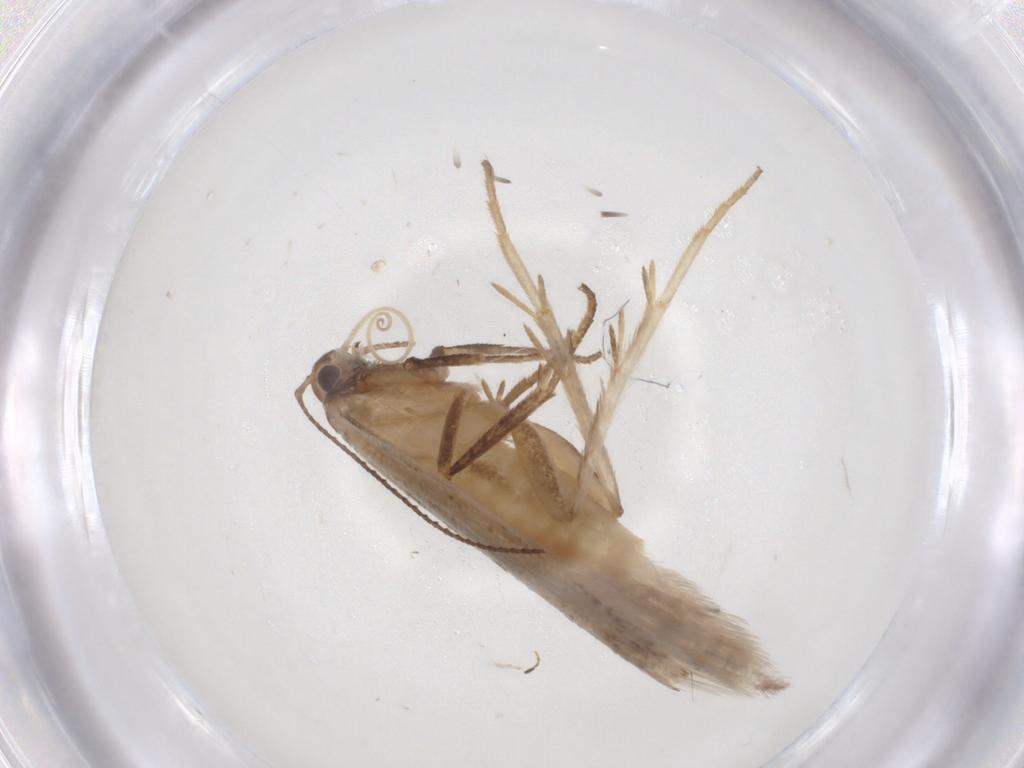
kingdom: Animalia
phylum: Arthropoda
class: Insecta
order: Lepidoptera
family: Gelechiidae
